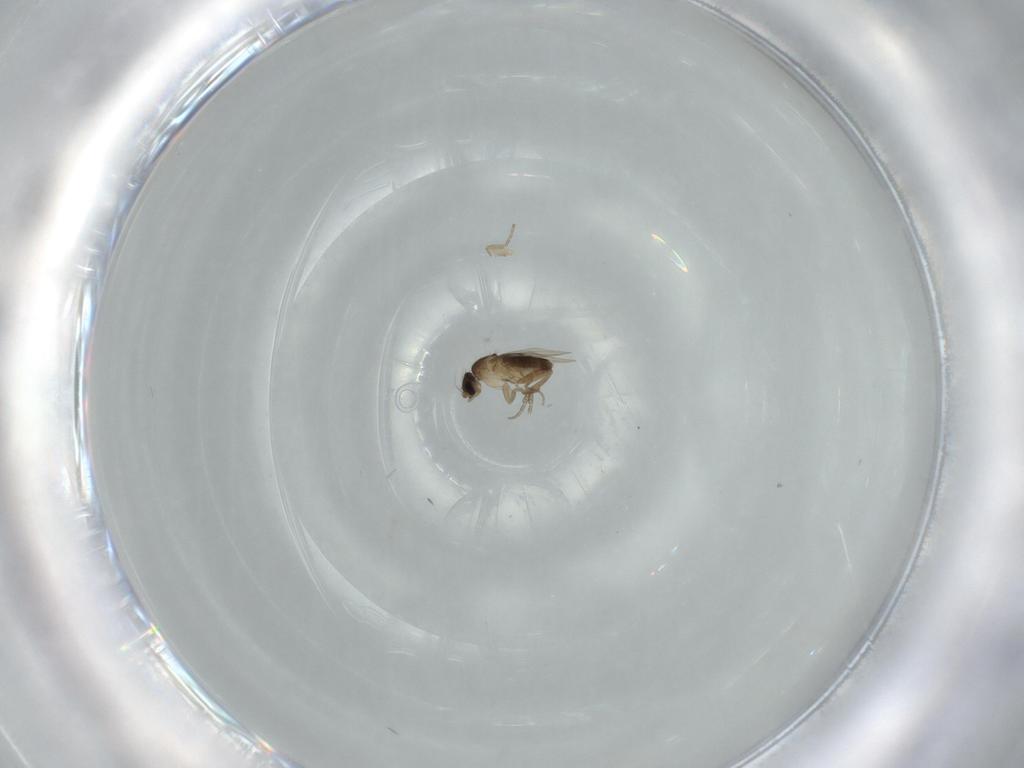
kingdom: Animalia
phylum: Arthropoda
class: Insecta
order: Diptera
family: Phoridae
